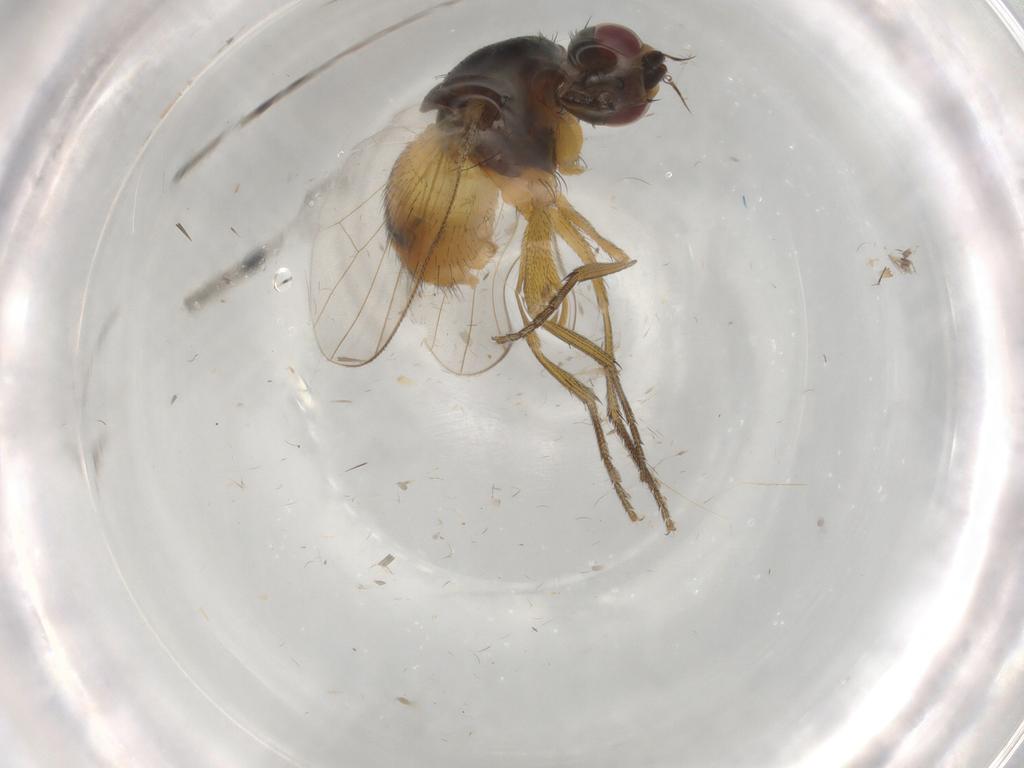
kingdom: Animalia
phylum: Arthropoda
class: Insecta
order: Diptera
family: Muscidae
